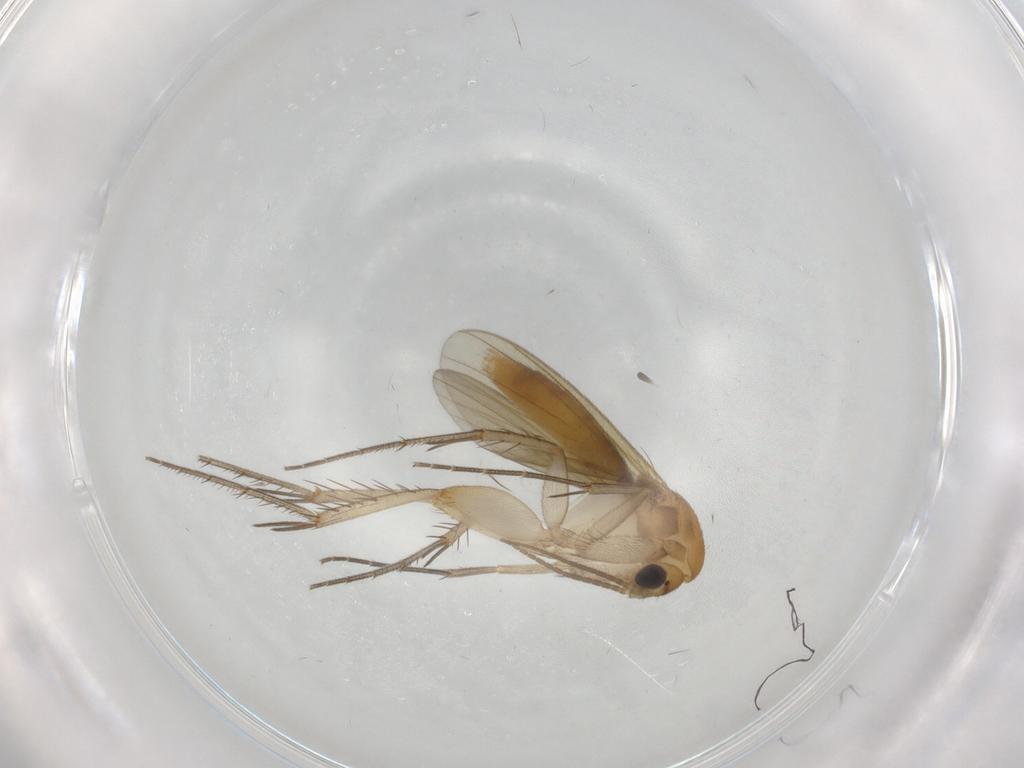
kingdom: Animalia
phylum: Arthropoda
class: Insecta
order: Diptera
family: Mycetophilidae
